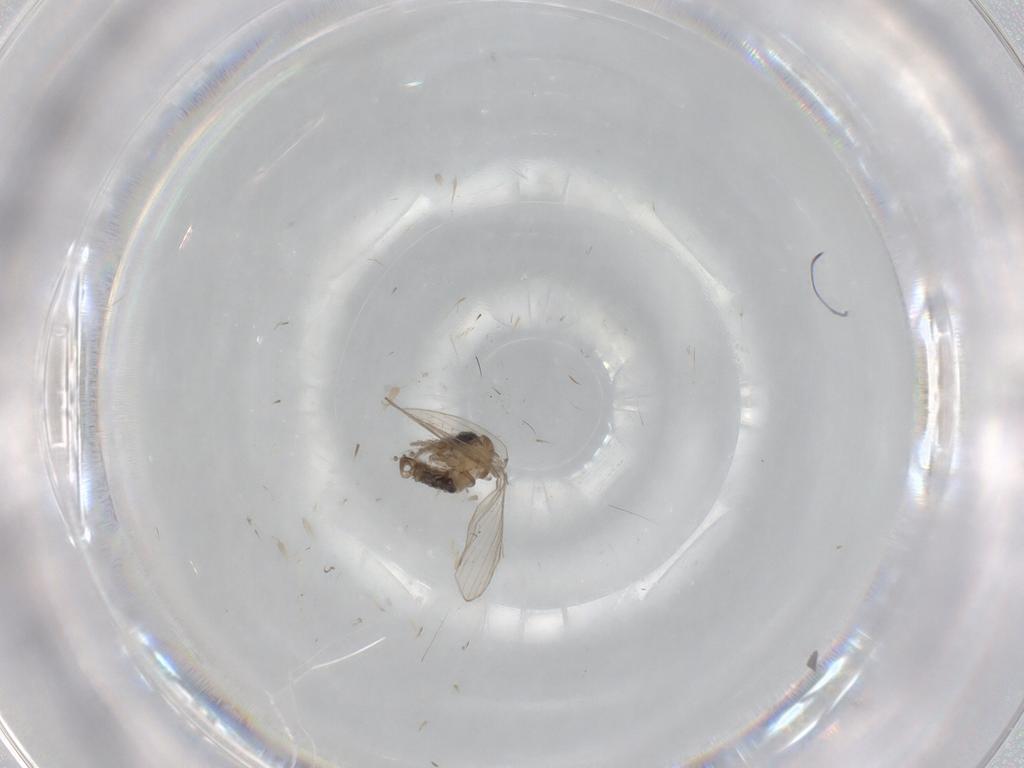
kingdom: Animalia
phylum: Arthropoda
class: Insecta
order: Diptera
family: Psychodidae
